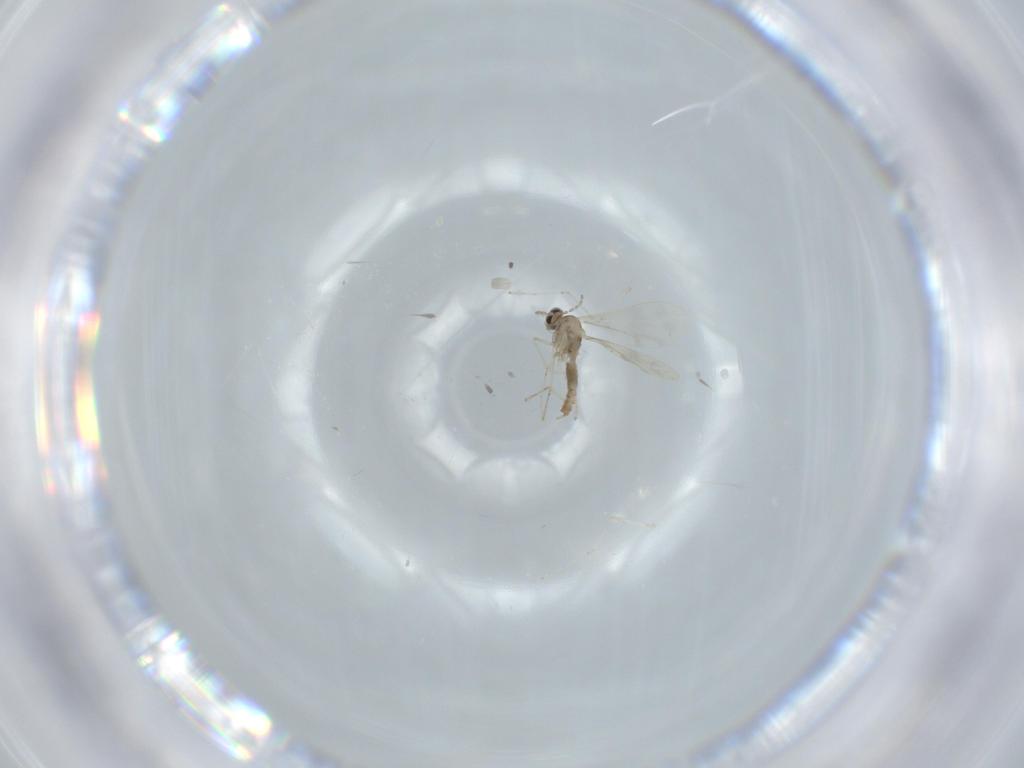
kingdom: Animalia
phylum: Arthropoda
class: Insecta
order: Diptera
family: Cecidomyiidae
